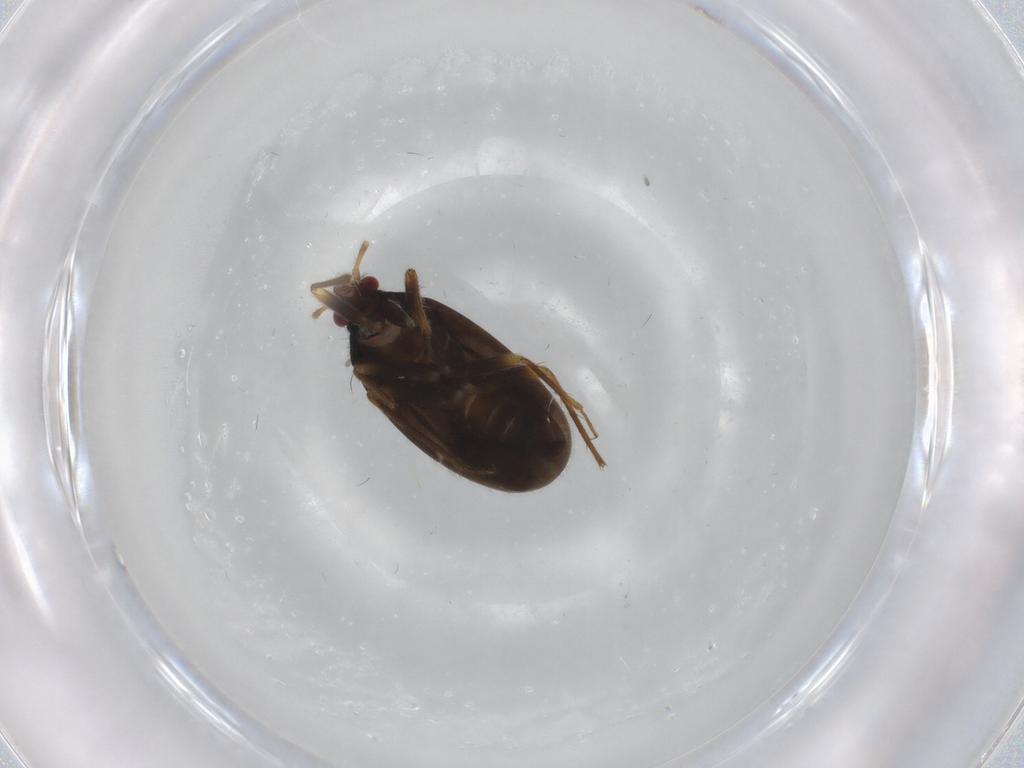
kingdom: Animalia
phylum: Arthropoda
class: Insecta
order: Hemiptera
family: Ceratocombidae
